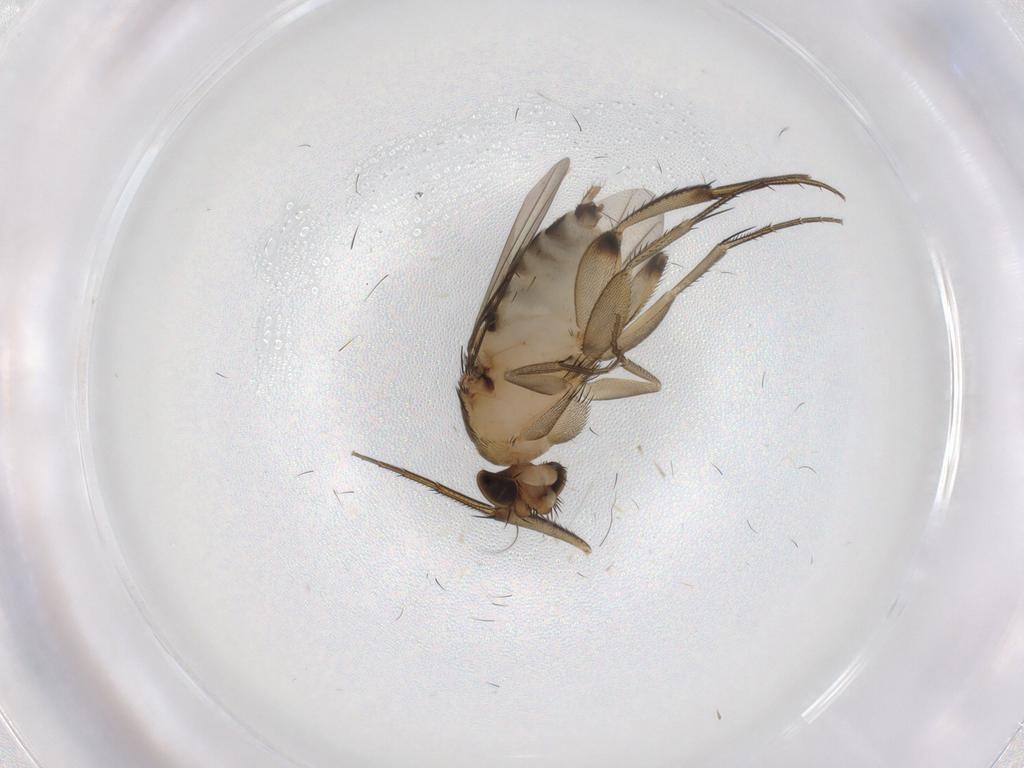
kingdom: Animalia
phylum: Arthropoda
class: Insecta
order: Diptera
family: Phoridae
